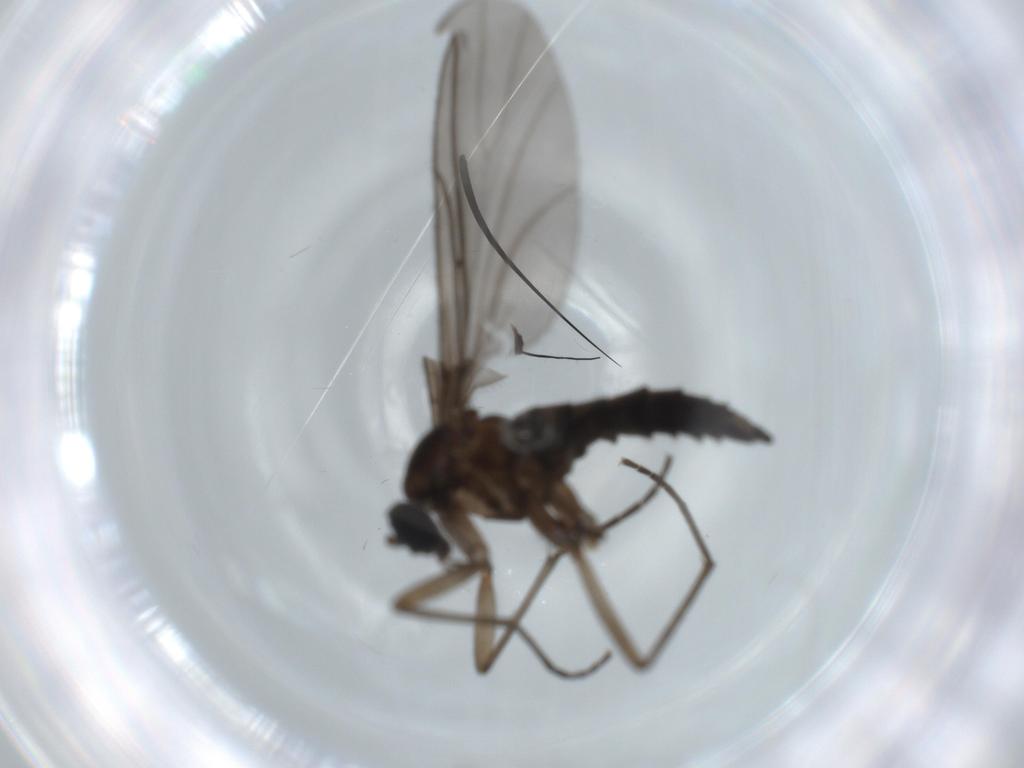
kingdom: Animalia
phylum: Arthropoda
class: Insecta
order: Diptera
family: Sciaridae
